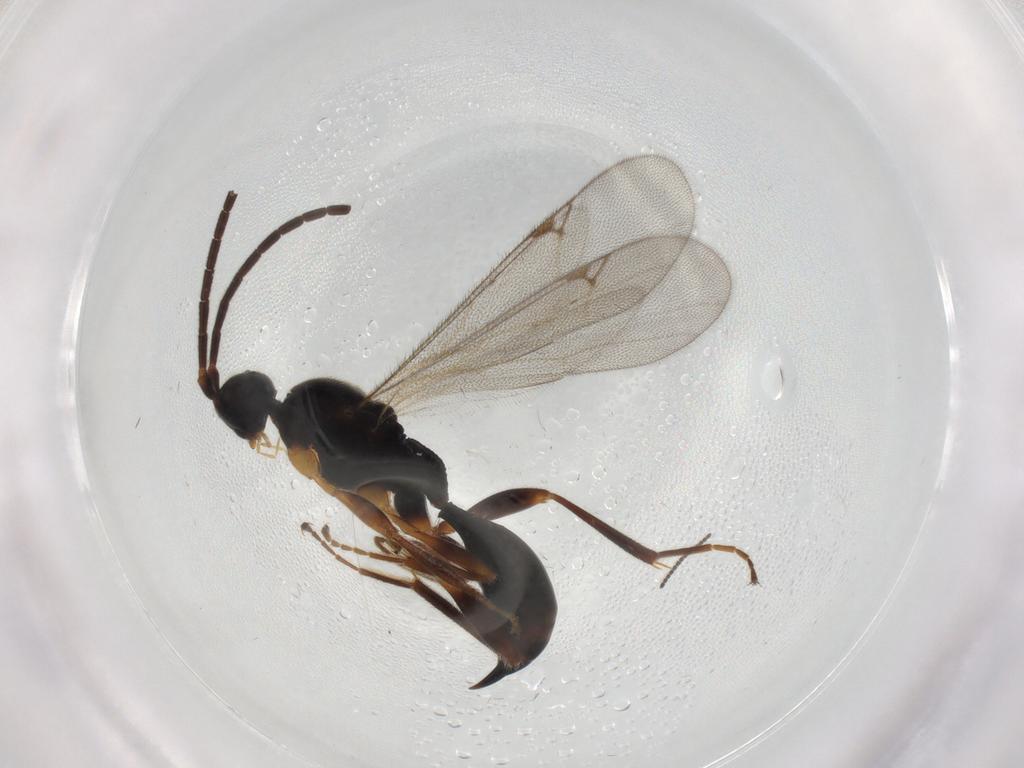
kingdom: Animalia
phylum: Arthropoda
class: Insecta
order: Hymenoptera
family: Proctotrupidae
